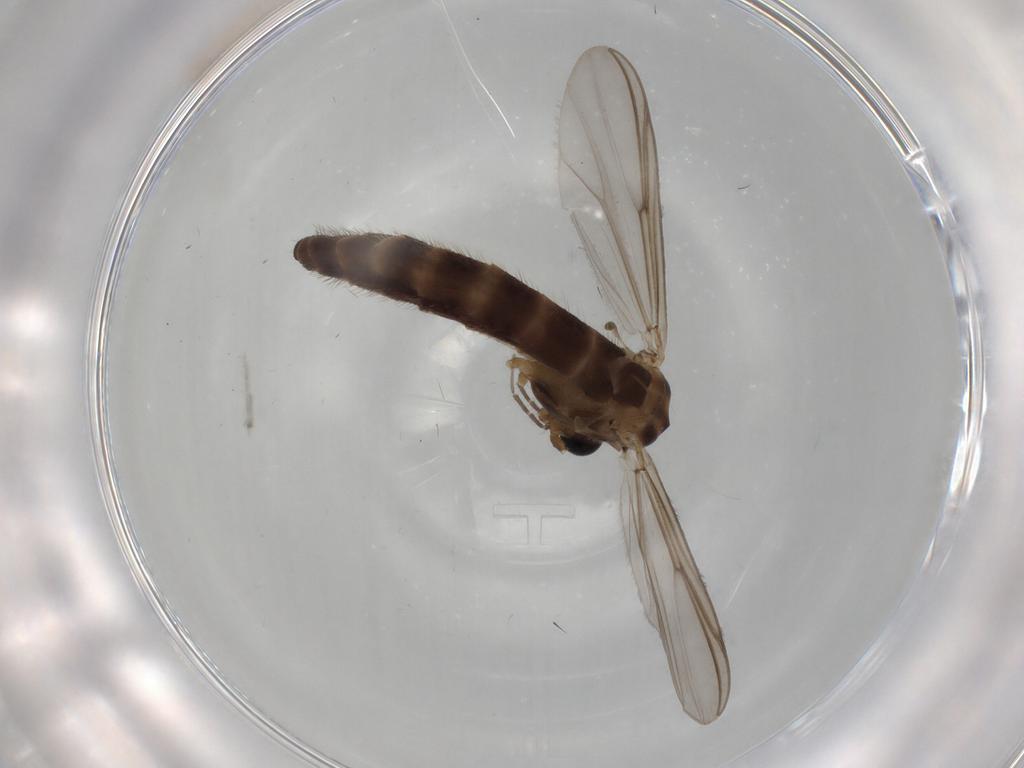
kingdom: Animalia
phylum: Arthropoda
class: Insecta
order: Diptera
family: Chironomidae
